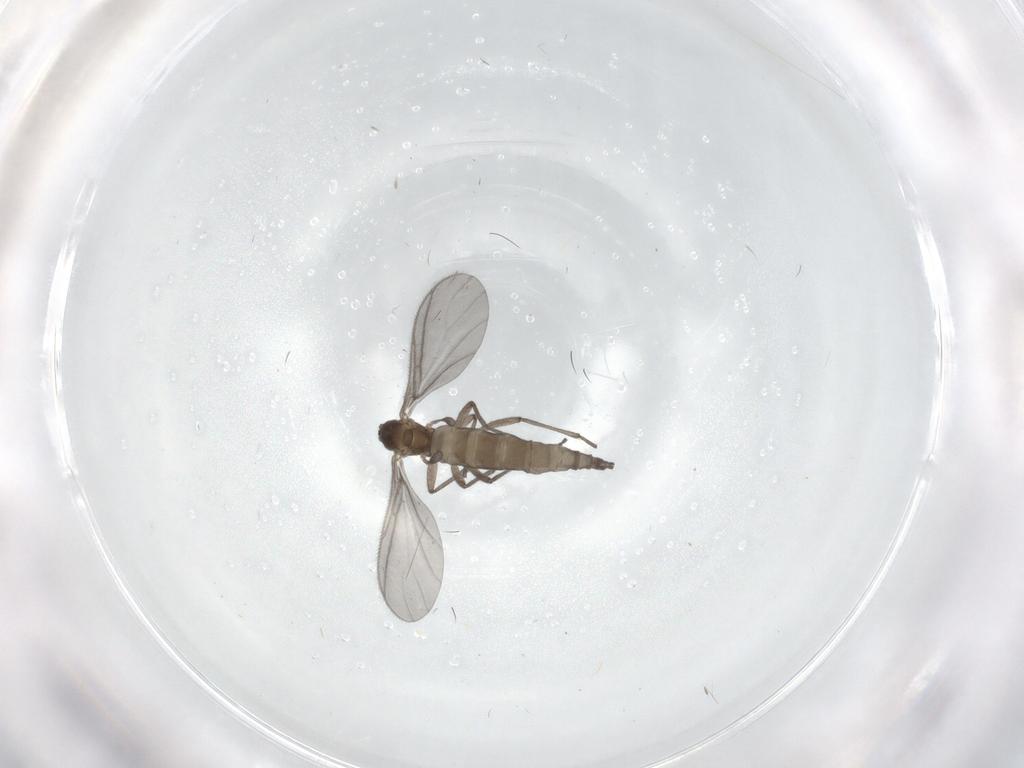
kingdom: Animalia
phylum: Arthropoda
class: Insecta
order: Diptera
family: Sciaridae
